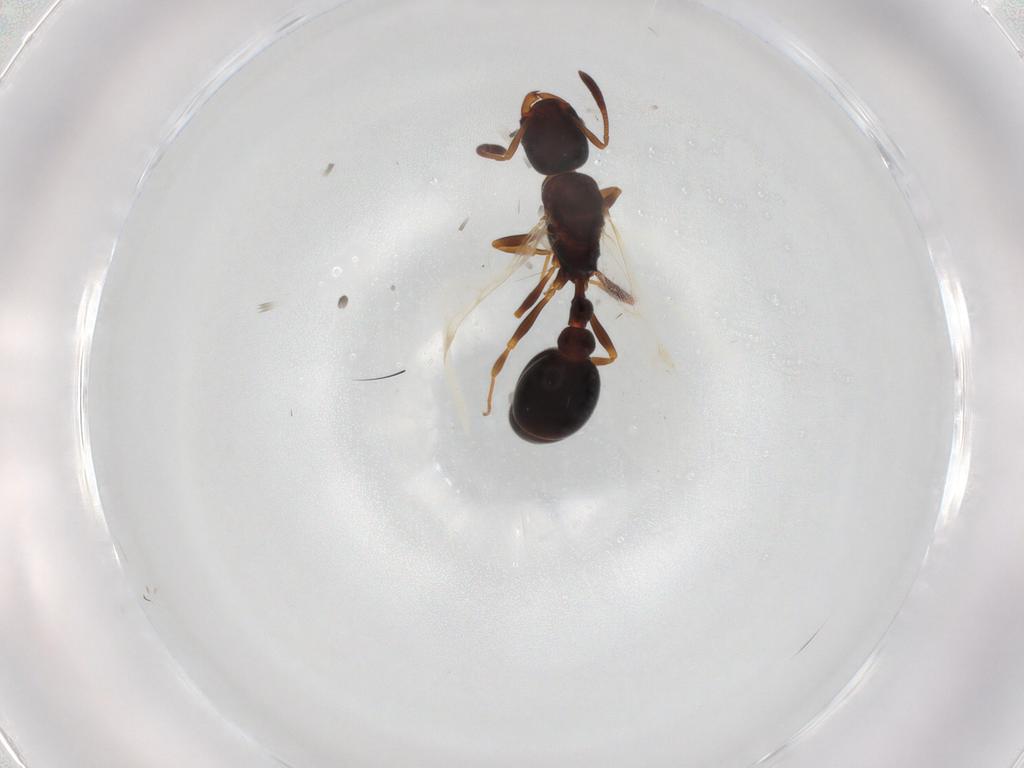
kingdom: Animalia
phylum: Arthropoda
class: Insecta
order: Hymenoptera
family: Formicidae
